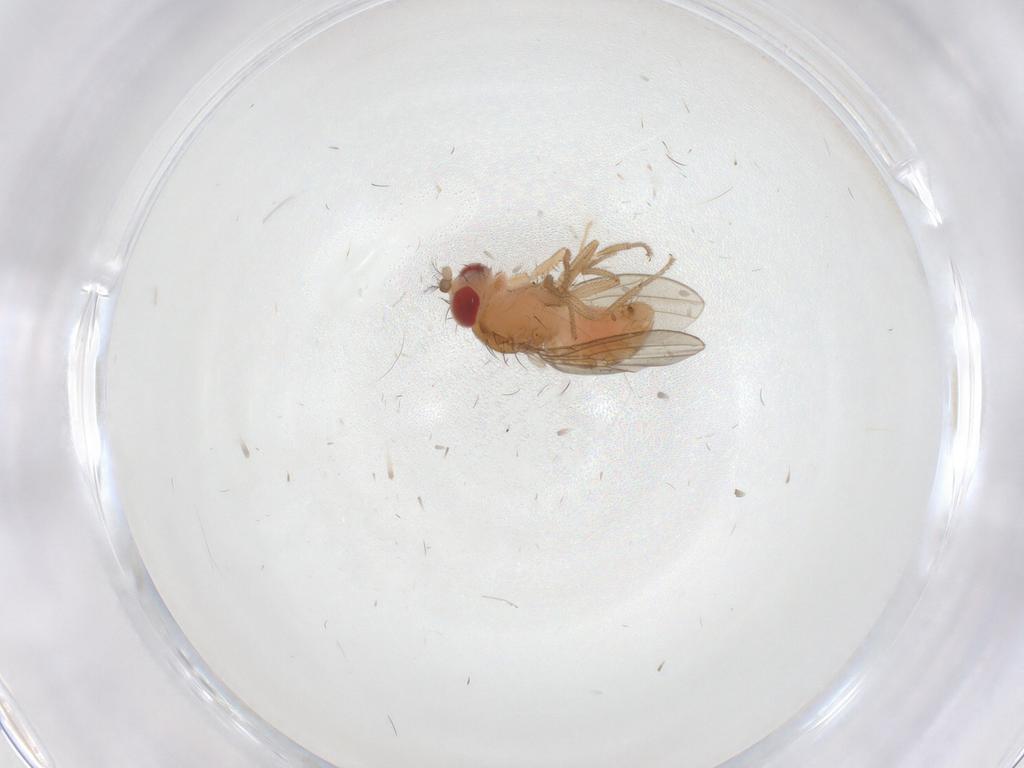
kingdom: Animalia
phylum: Arthropoda
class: Insecta
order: Diptera
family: Drosophilidae
